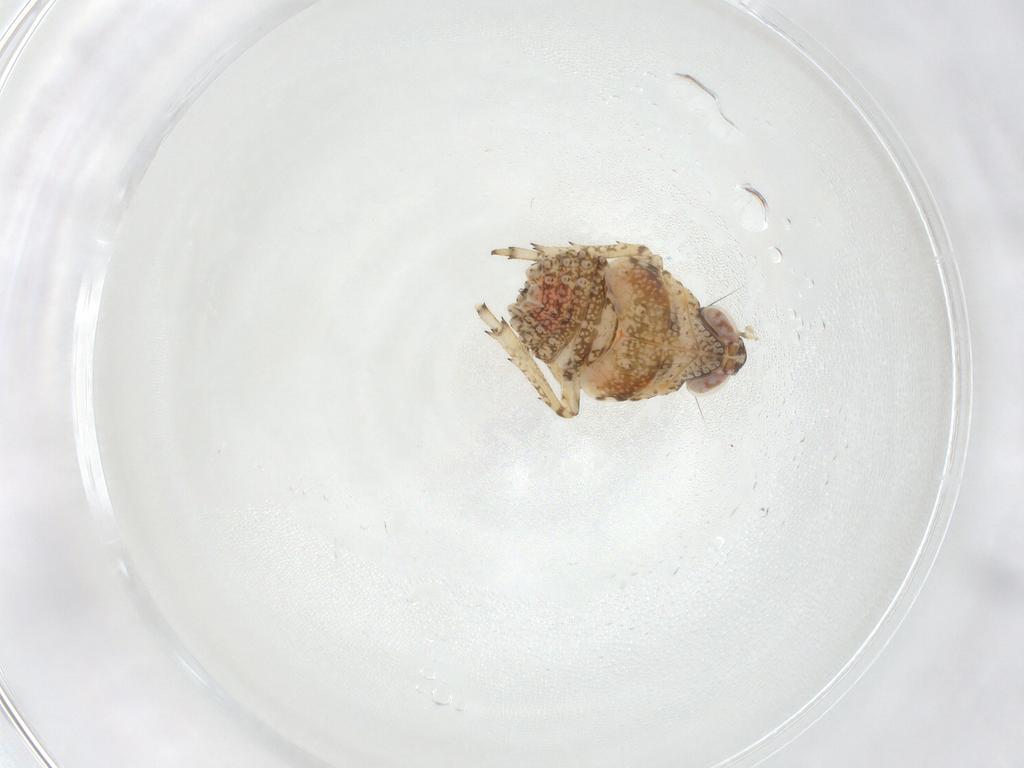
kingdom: Animalia
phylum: Arthropoda
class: Insecta
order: Hemiptera
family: Issidae
